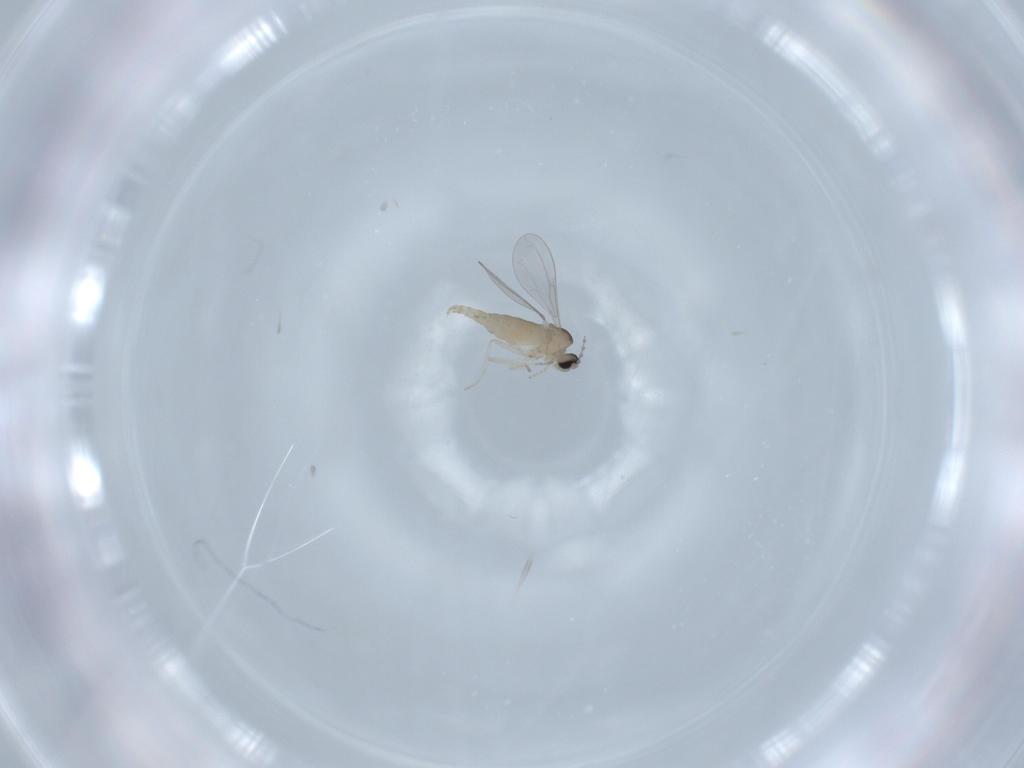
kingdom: Animalia
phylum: Arthropoda
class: Insecta
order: Diptera
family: Cecidomyiidae
